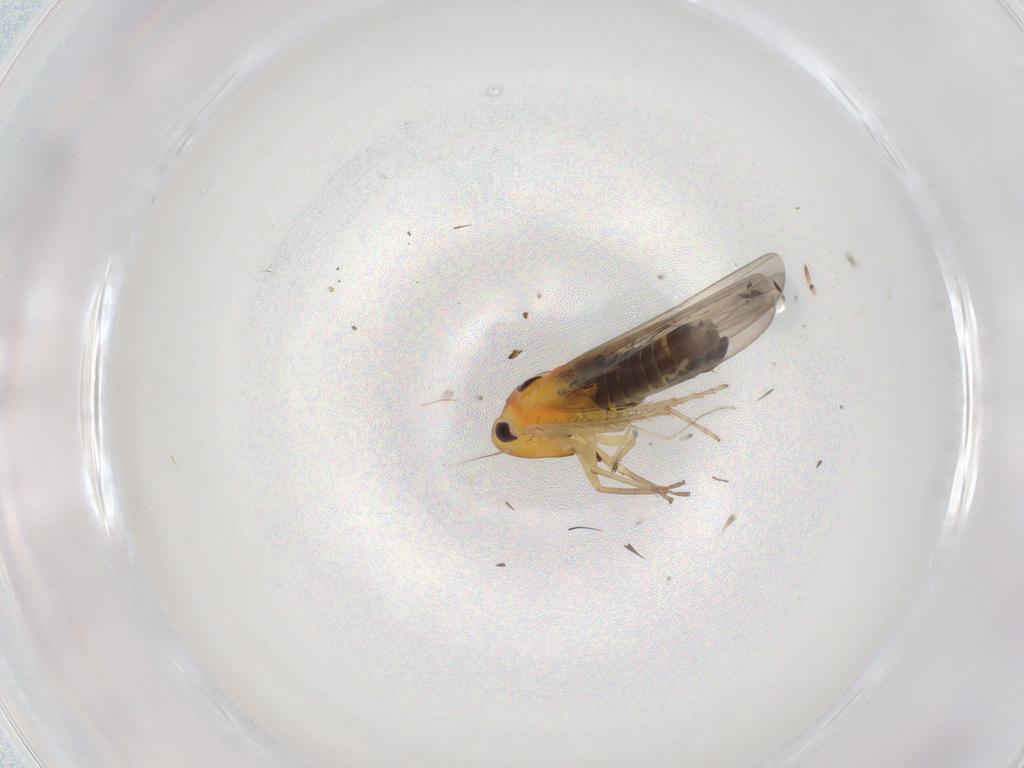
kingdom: Animalia
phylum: Arthropoda
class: Insecta
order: Hemiptera
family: Cicadellidae
